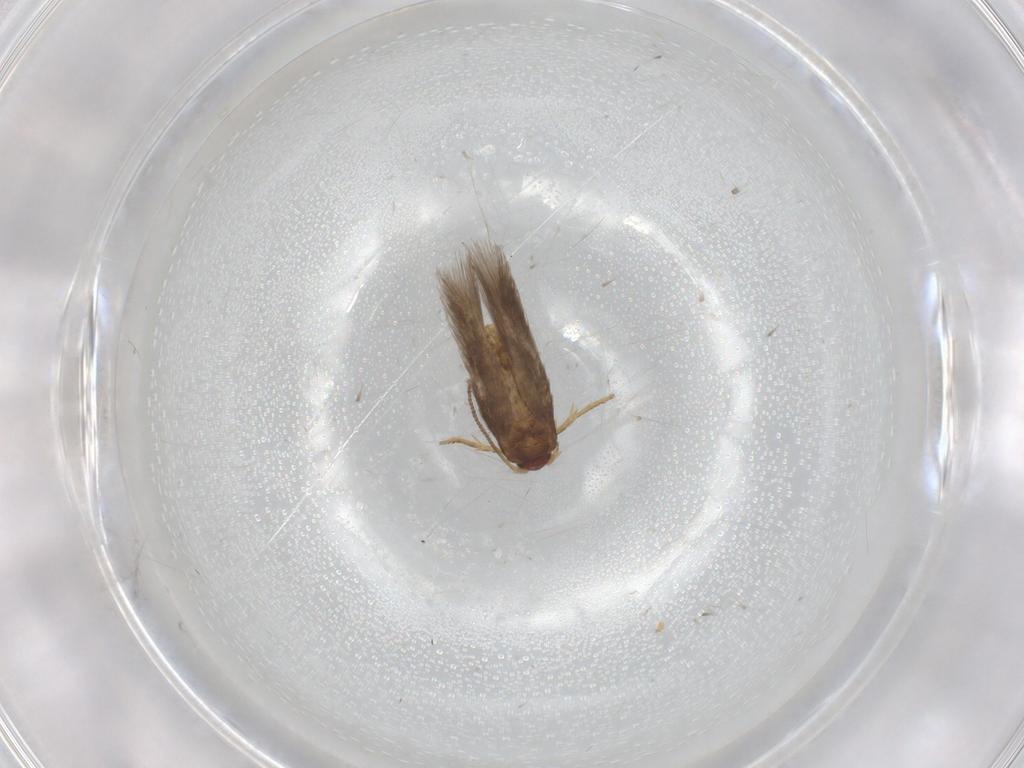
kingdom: Animalia
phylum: Arthropoda
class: Insecta
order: Lepidoptera
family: Nepticulidae
